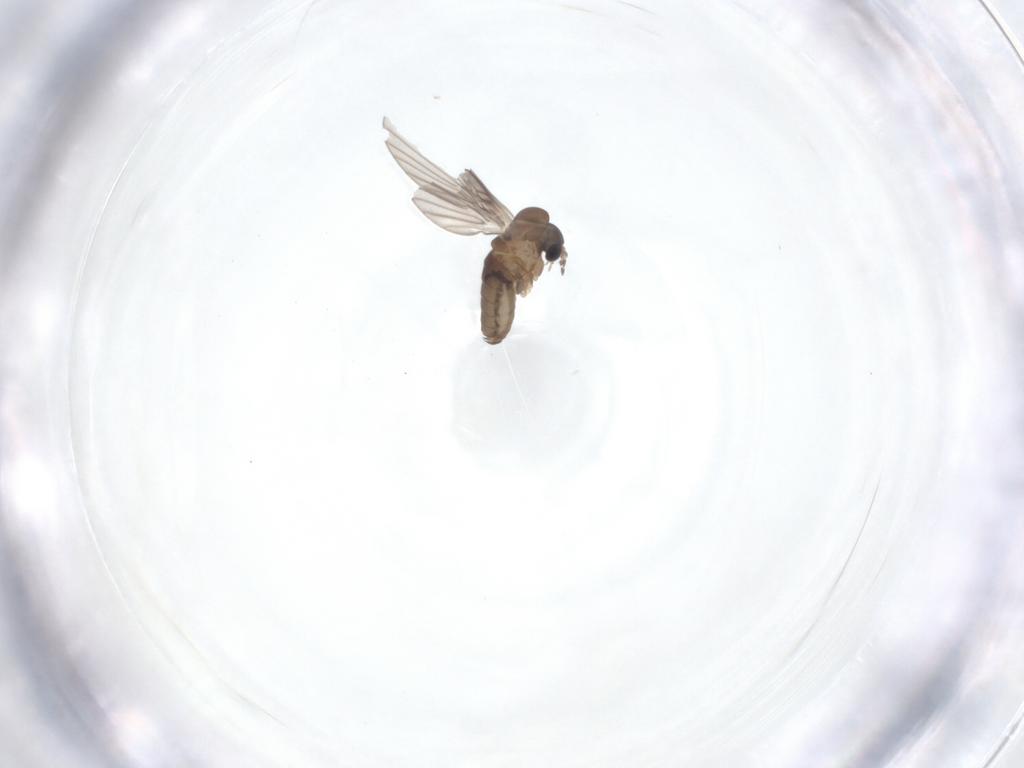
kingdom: Animalia
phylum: Arthropoda
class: Insecta
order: Diptera
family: Psychodidae
